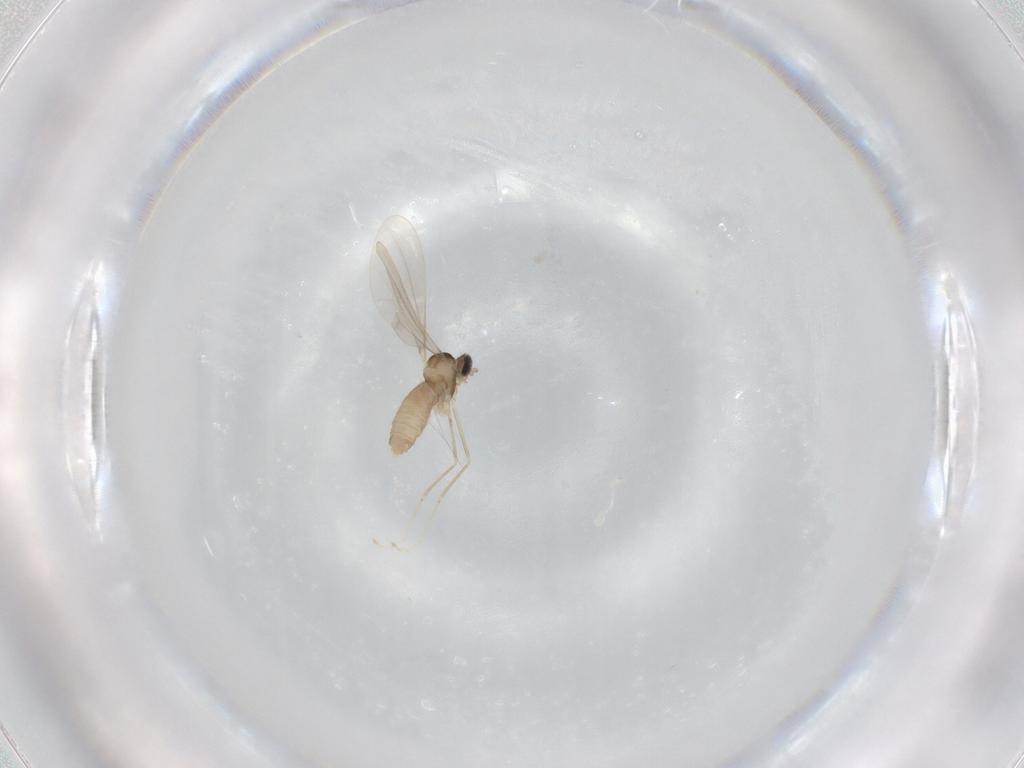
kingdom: Animalia
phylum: Arthropoda
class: Insecta
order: Diptera
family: Cecidomyiidae
